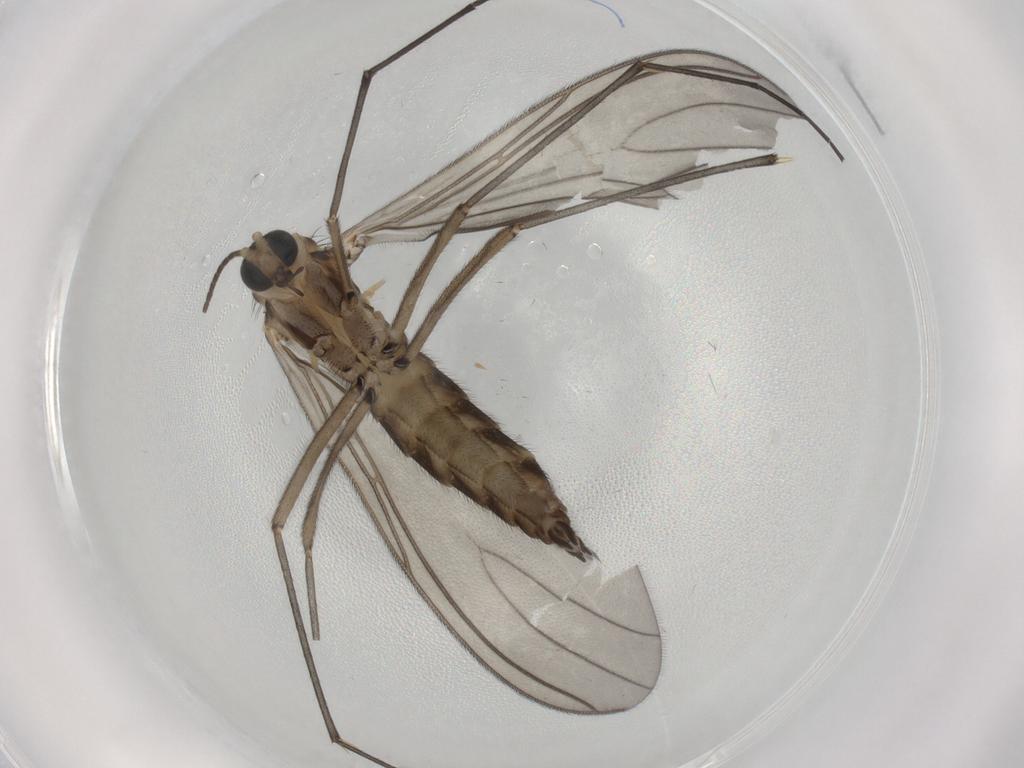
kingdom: Animalia
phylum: Arthropoda
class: Insecta
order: Diptera
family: Sciaridae
